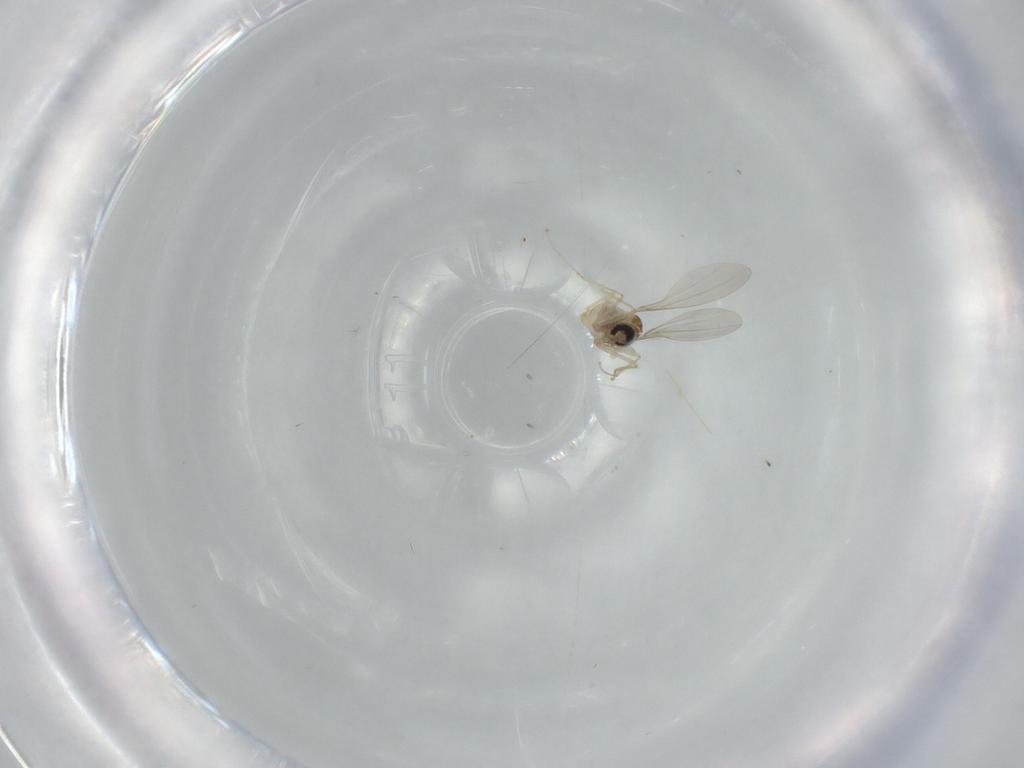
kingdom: Animalia
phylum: Arthropoda
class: Insecta
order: Diptera
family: Cecidomyiidae
